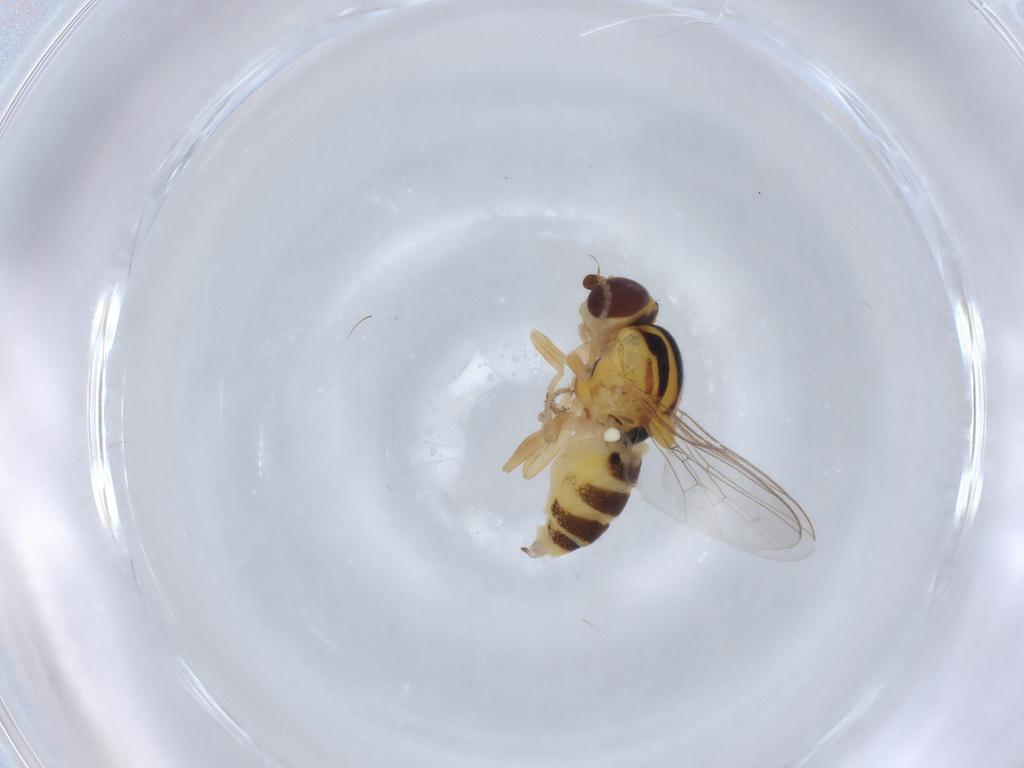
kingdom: Animalia
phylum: Arthropoda
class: Insecta
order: Diptera
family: Chloropidae
